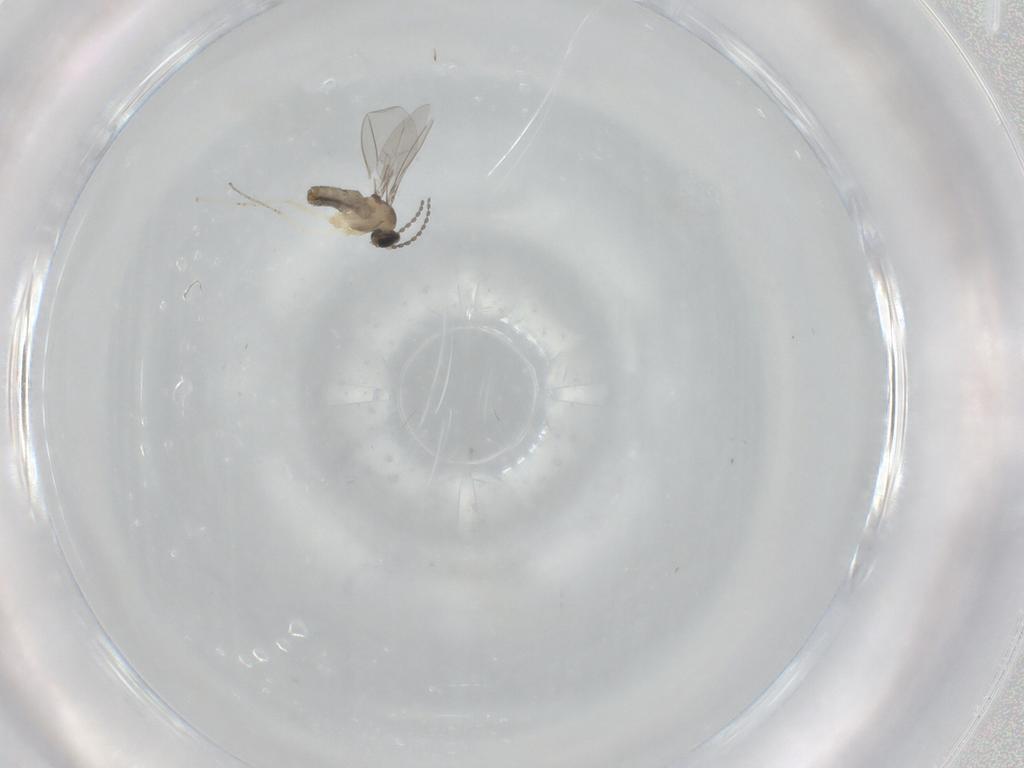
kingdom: Animalia
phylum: Arthropoda
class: Insecta
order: Diptera
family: Cecidomyiidae
